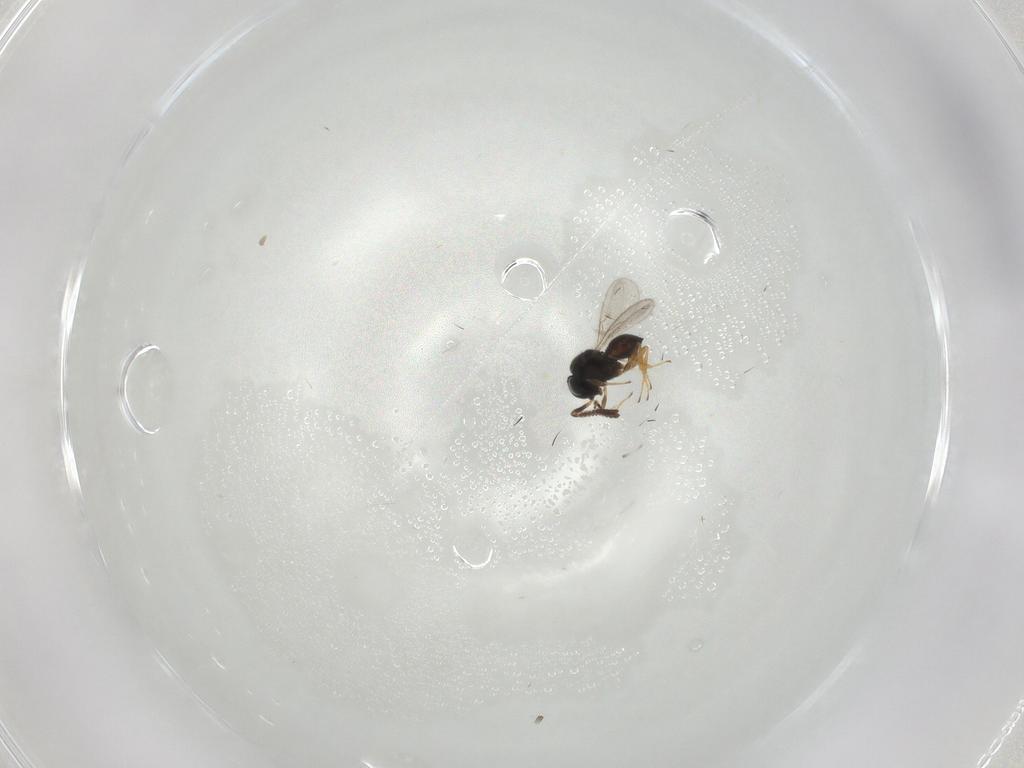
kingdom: Animalia
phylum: Arthropoda
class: Insecta
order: Hymenoptera
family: Scelionidae
